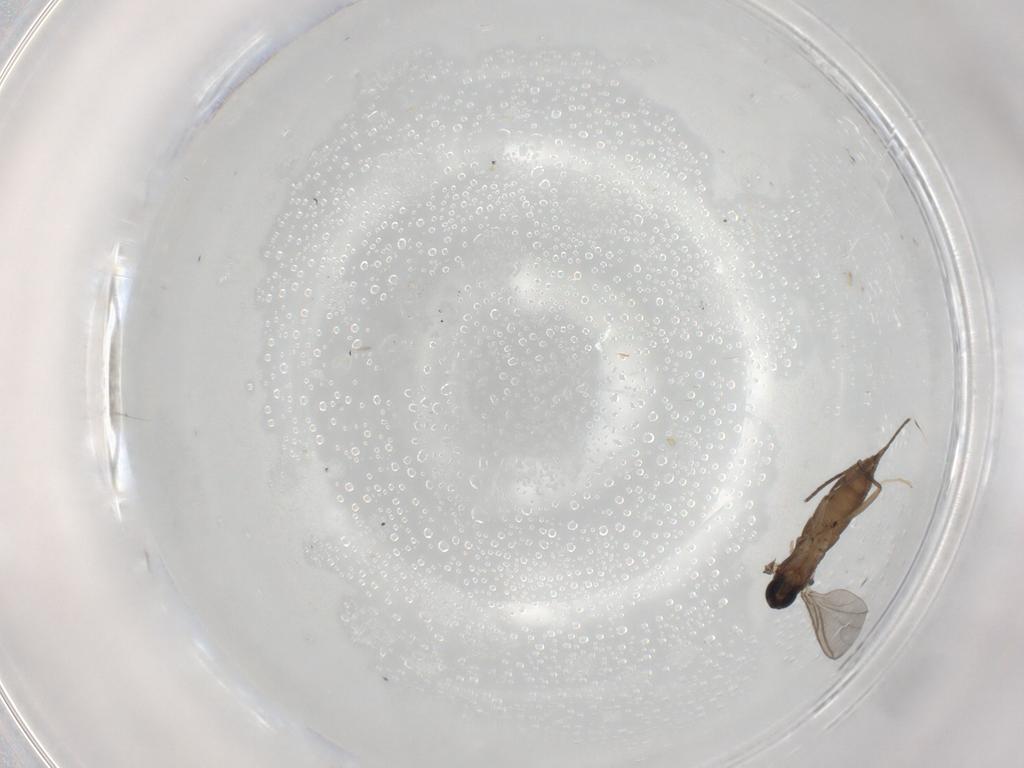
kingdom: Animalia
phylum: Arthropoda
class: Insecta
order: Diptera
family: Chironomidae
